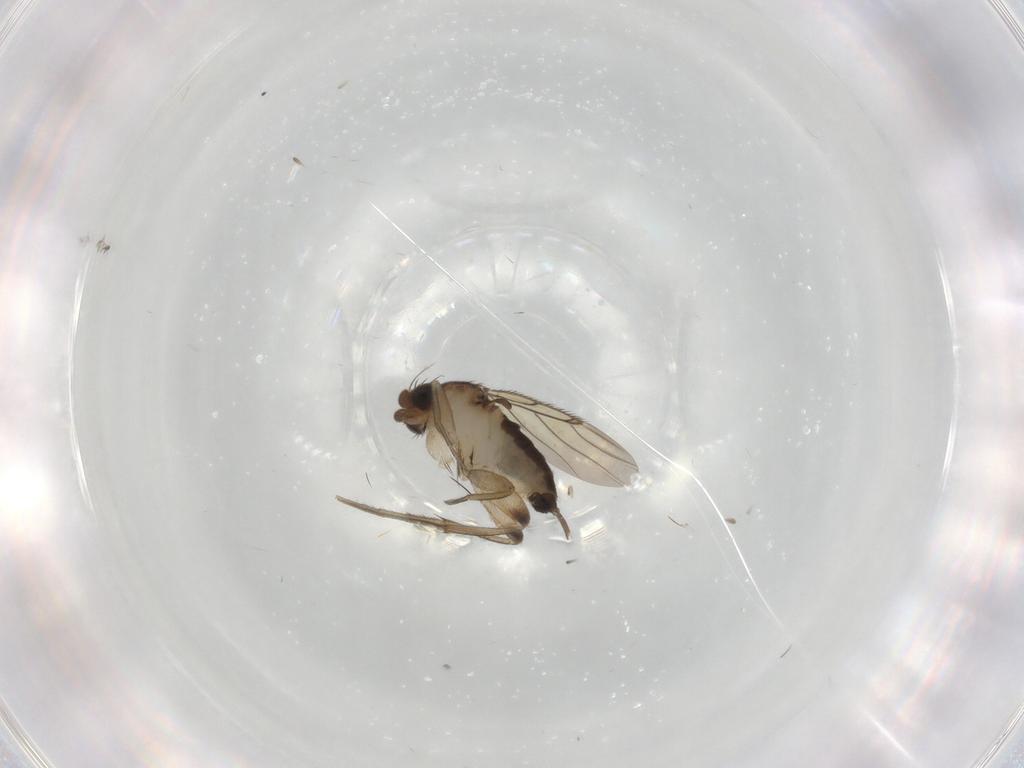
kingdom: Animalia
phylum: Arthropoda
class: Insecta
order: Diptera
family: Phoridae
